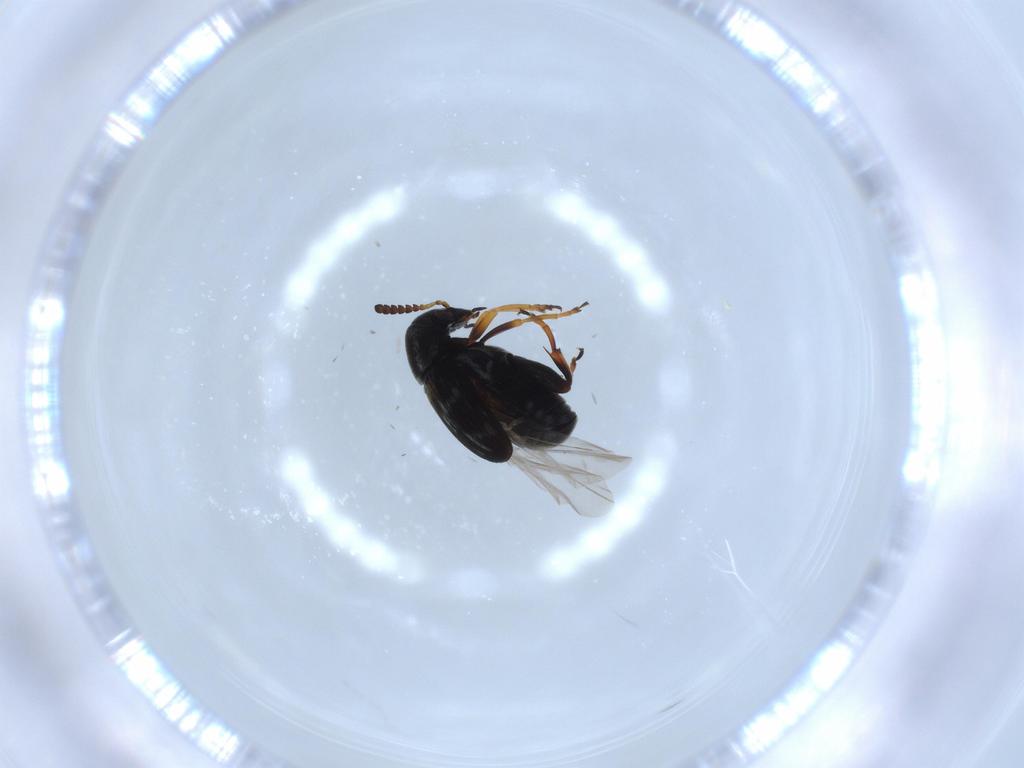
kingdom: Animalia
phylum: Arthropoda
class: Insecta
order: Coleoptera
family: Chrysomelidae
